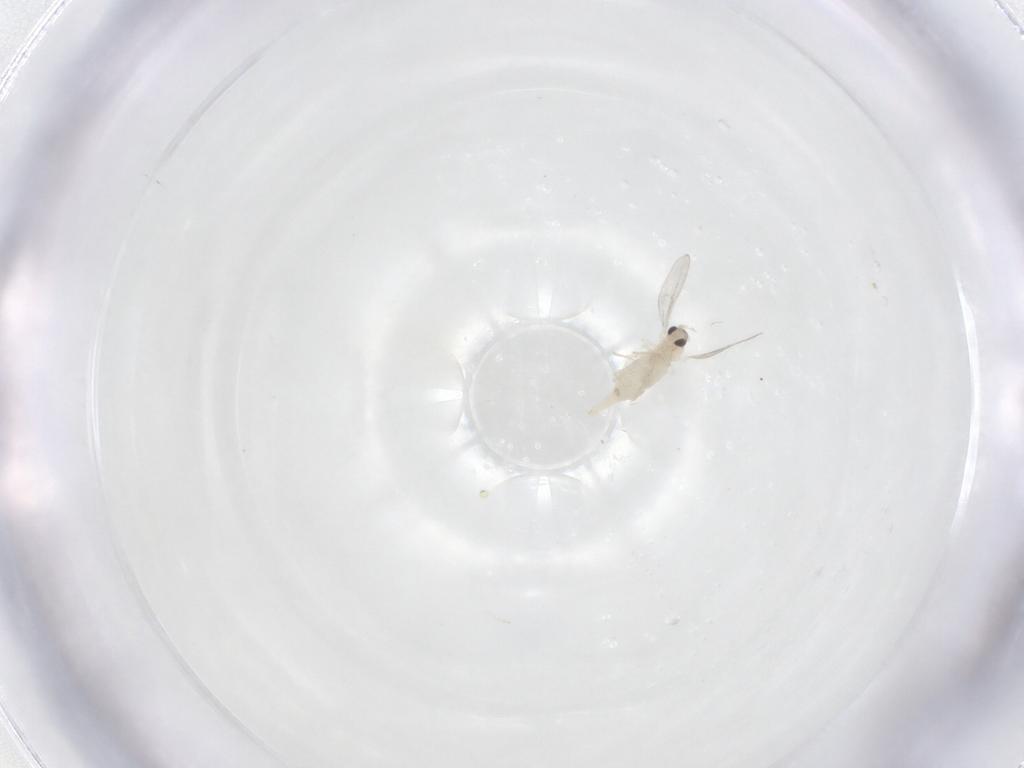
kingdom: Animalia
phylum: Arthropoda
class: Insecta
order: Diptera
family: Cecidomyiidae
